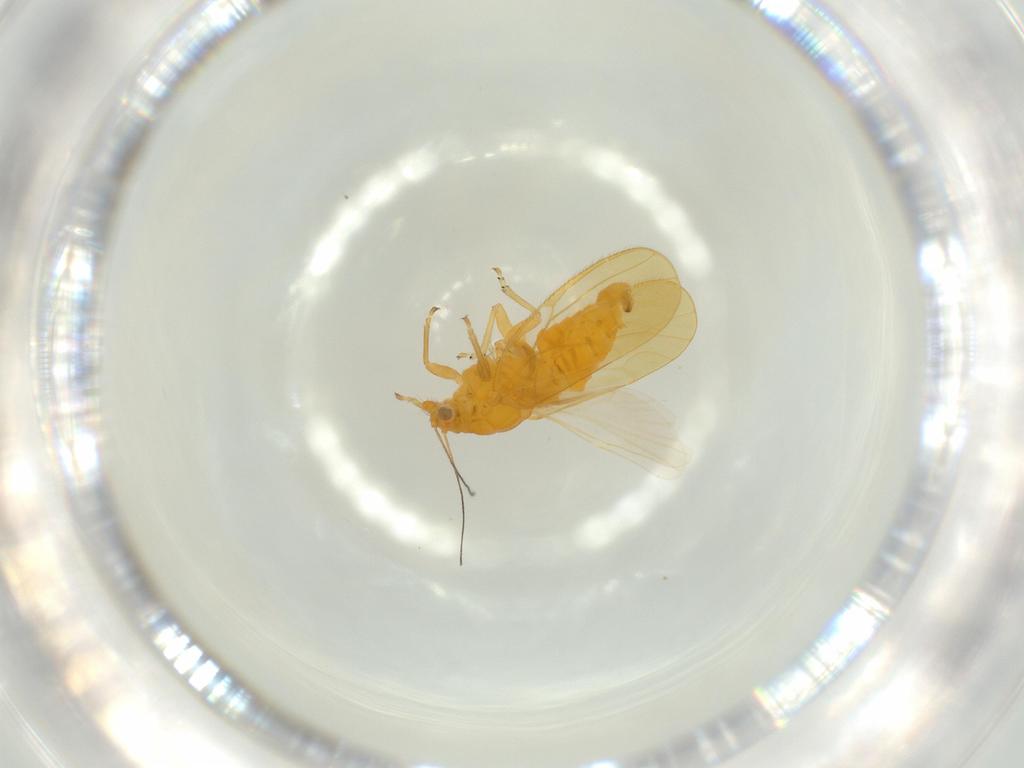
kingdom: Animalia
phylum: Arthropoda
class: Insecta
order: Hemiptera
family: Psyllidae
